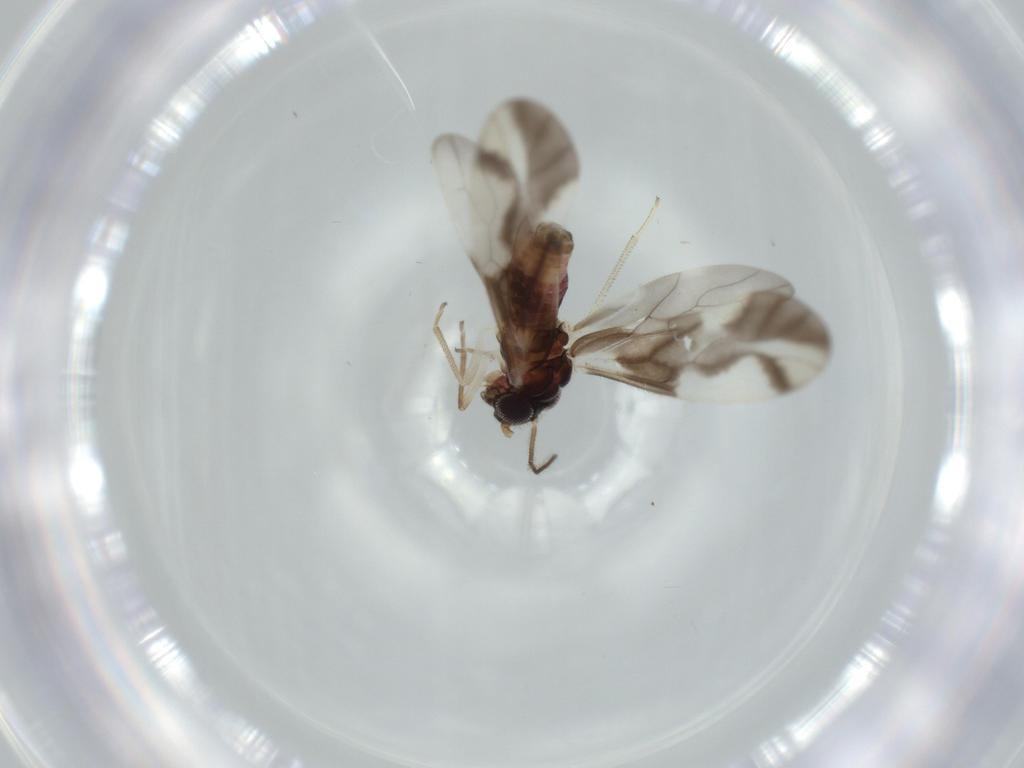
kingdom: Animalia
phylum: Arthropoda
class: Insecta
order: Psocodea
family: Caeciliusidae
